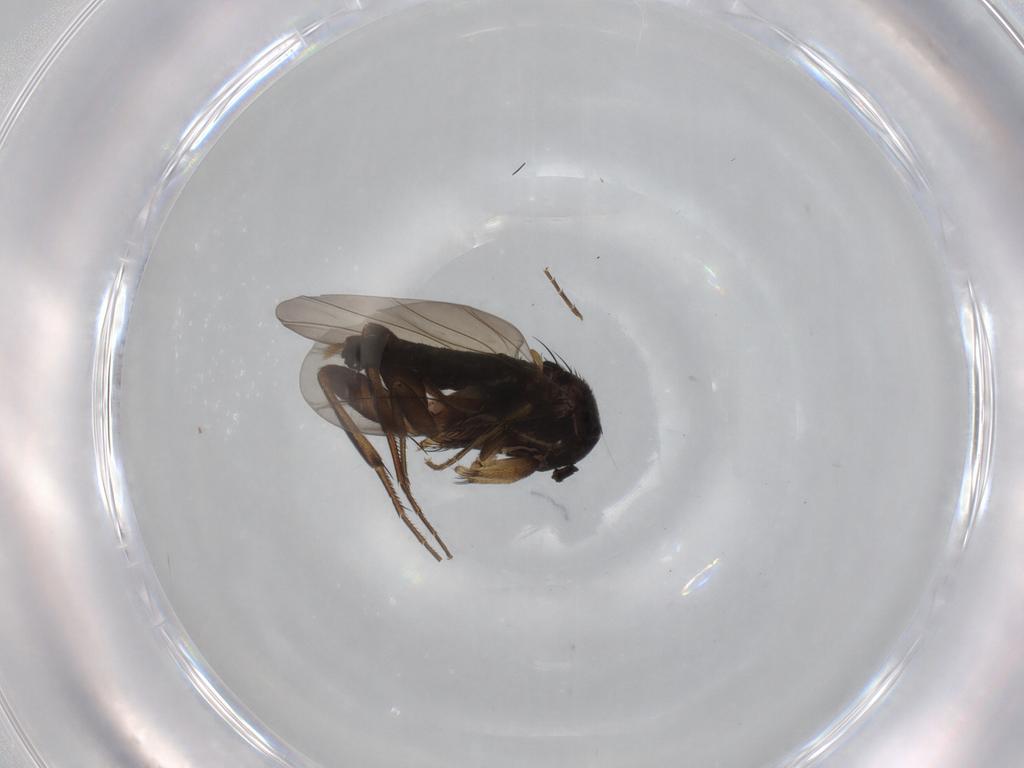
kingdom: Animalia
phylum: Arthropoda
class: Insecta
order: Diptera
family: Phoridae
